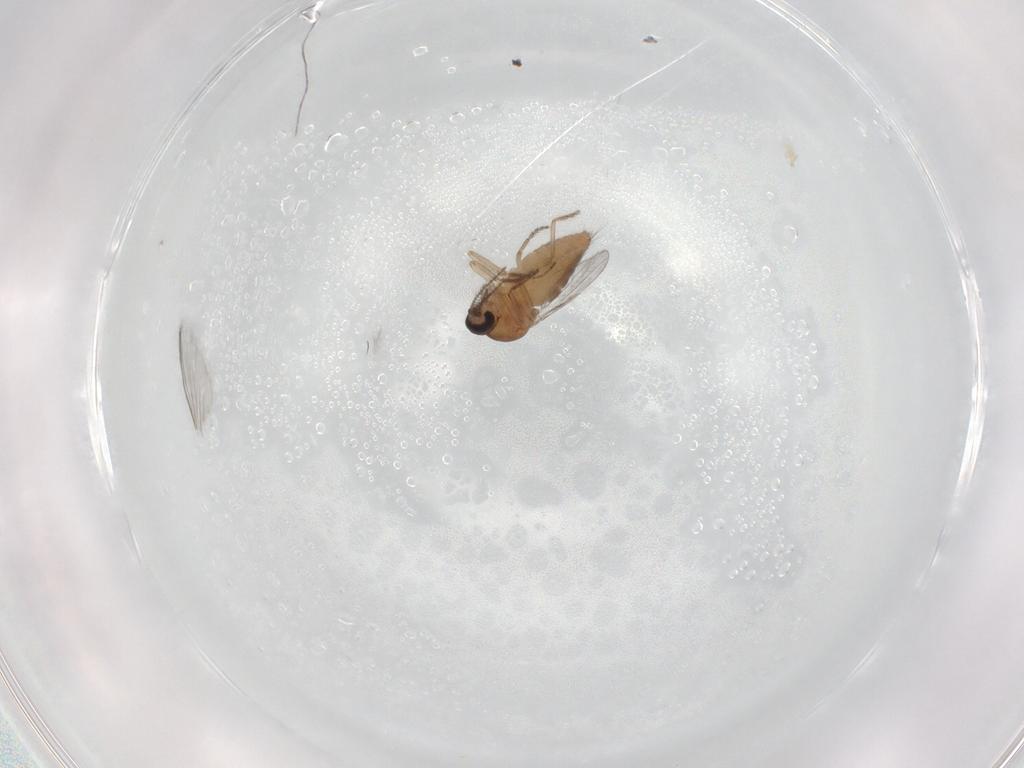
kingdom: Animalia
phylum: Arthropoda
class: Insecta
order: Diptera
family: Ceratopogonidae
